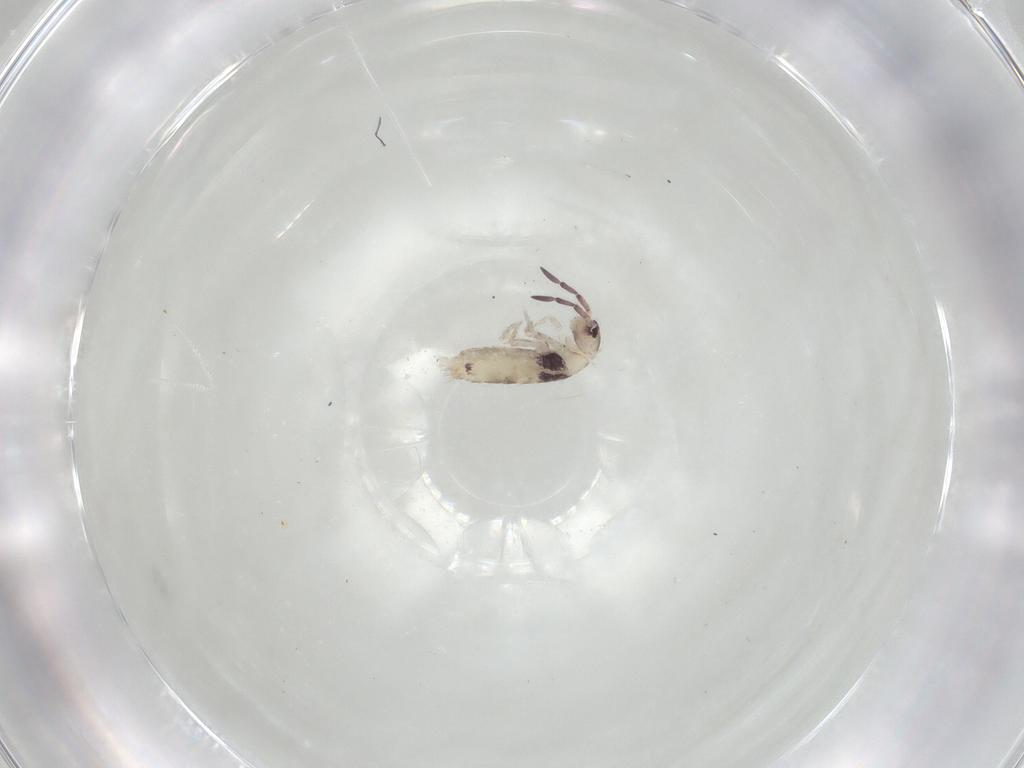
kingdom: Animalia
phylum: Arthropoda
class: Collembola
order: Entomobryomorpha
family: Entomobryidae
